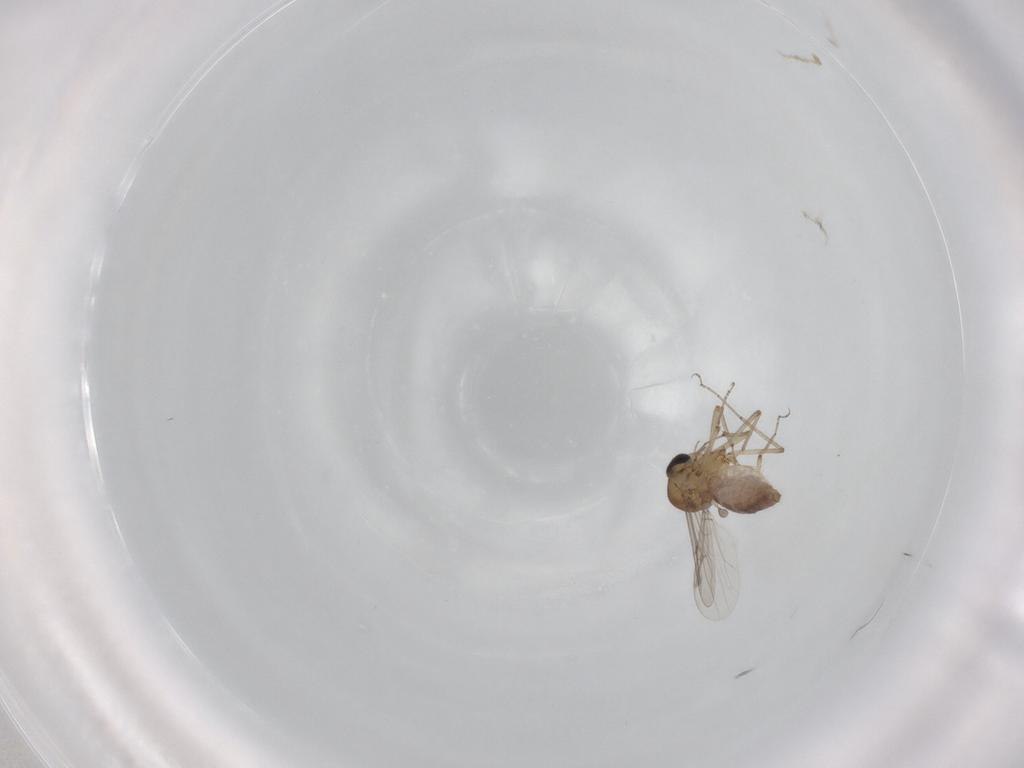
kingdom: Animalia
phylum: Arthropoda
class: Insecta
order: Diptera
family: Ceratopogonidae
